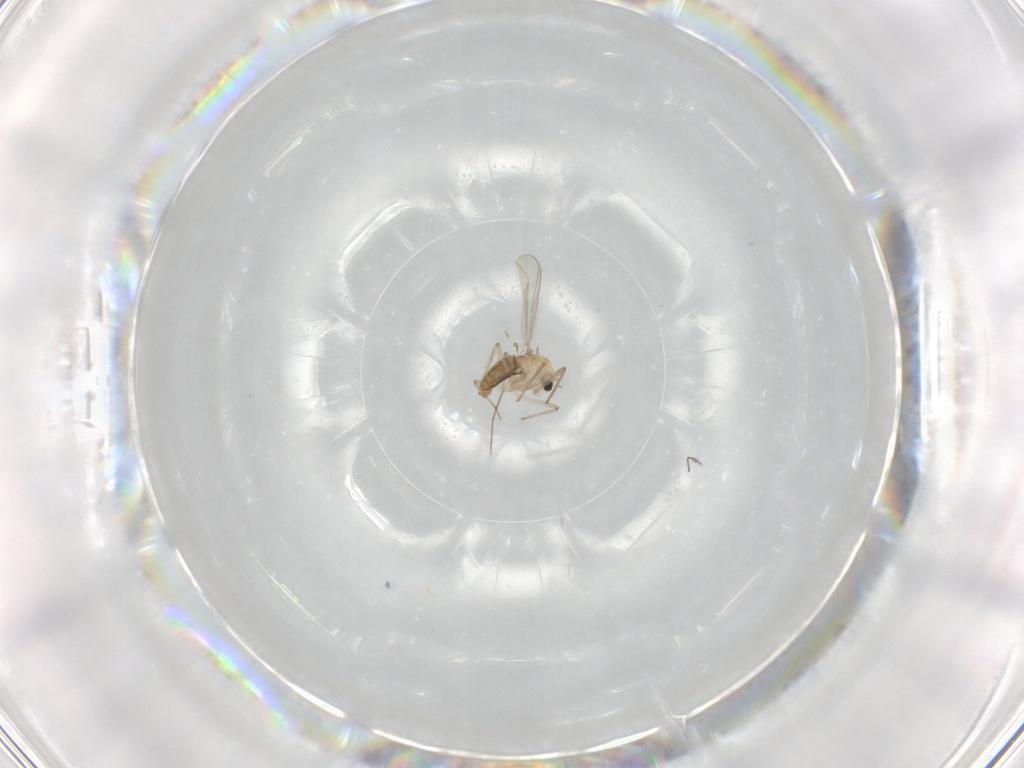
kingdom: Animalia
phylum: Arthropoda
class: Insecta
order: Diptera
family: Chironomidae
